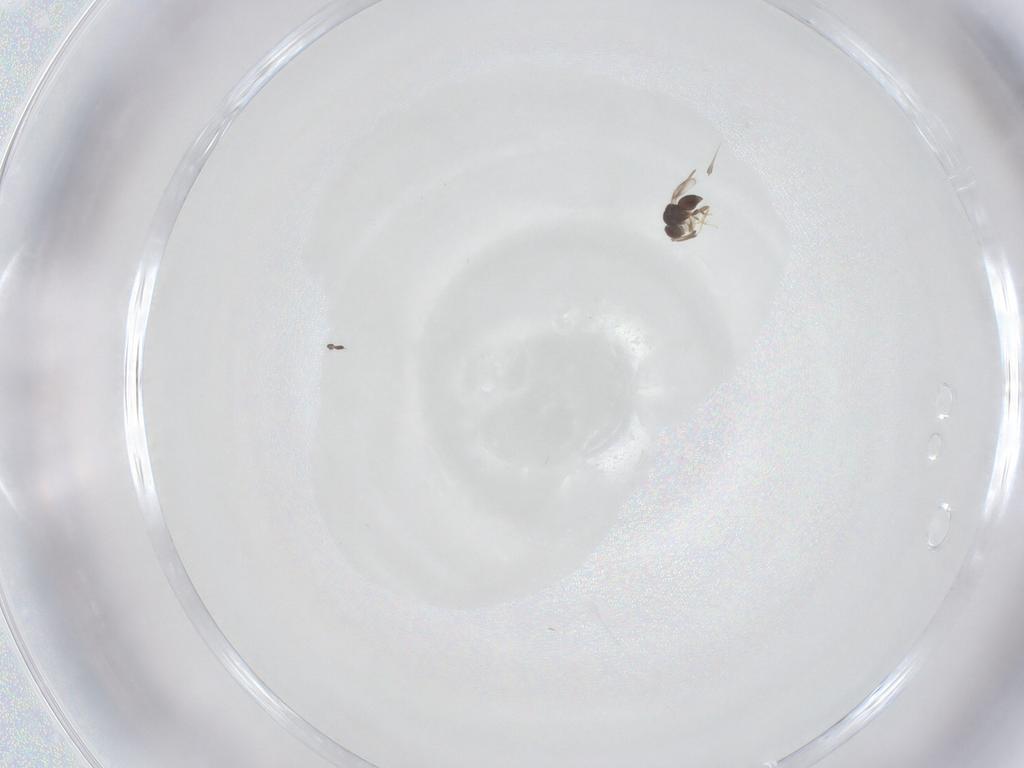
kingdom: Animalia
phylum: Arthropoda
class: Insecta
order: Diptera
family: Sciaridae
